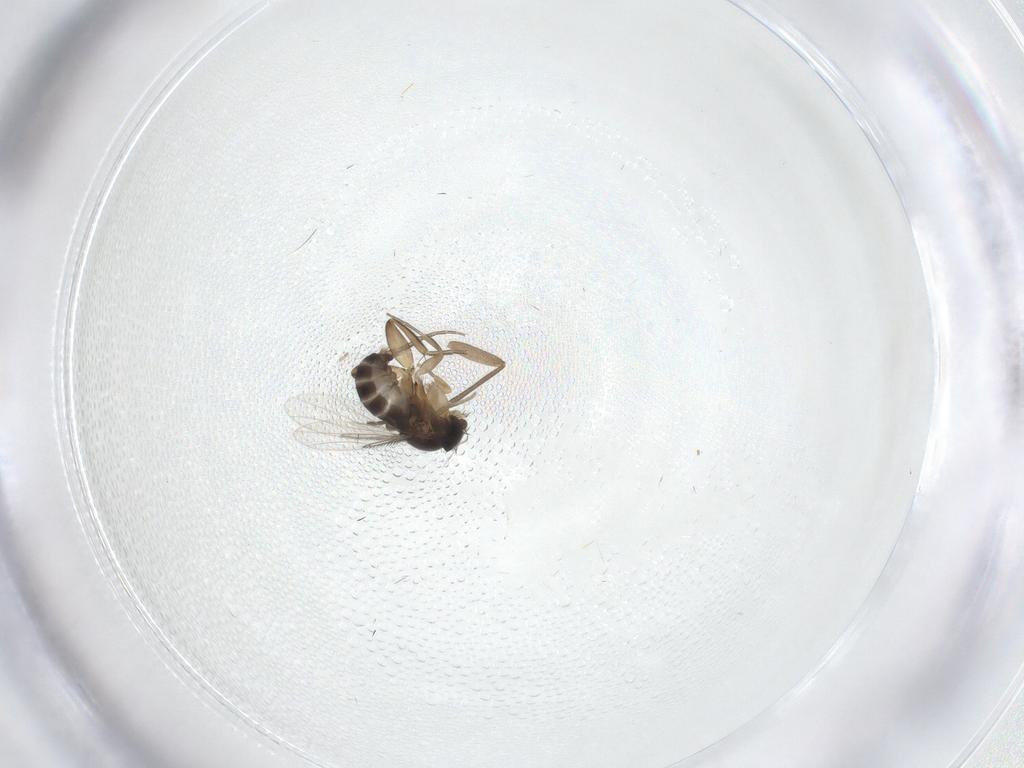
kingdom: Animalia
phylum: Arthropoda
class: Insecta
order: Diptera
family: Phoridae
